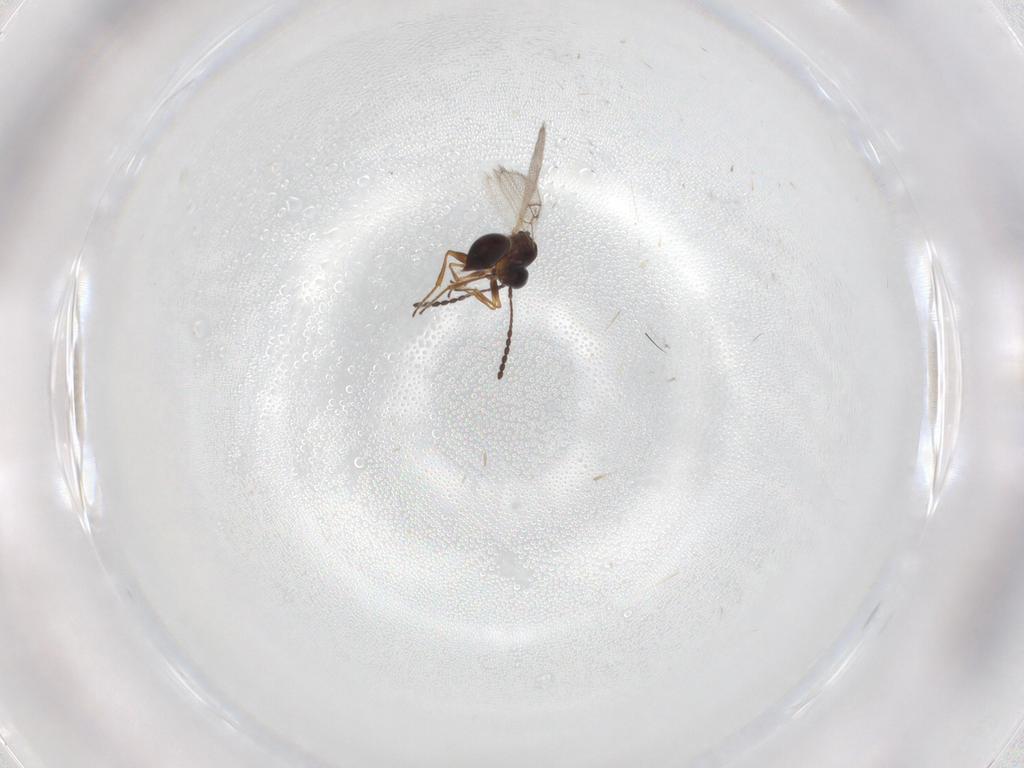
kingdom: Animalia
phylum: Arthropoda
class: Insecta
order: Hymenoptera
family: Figitidae
